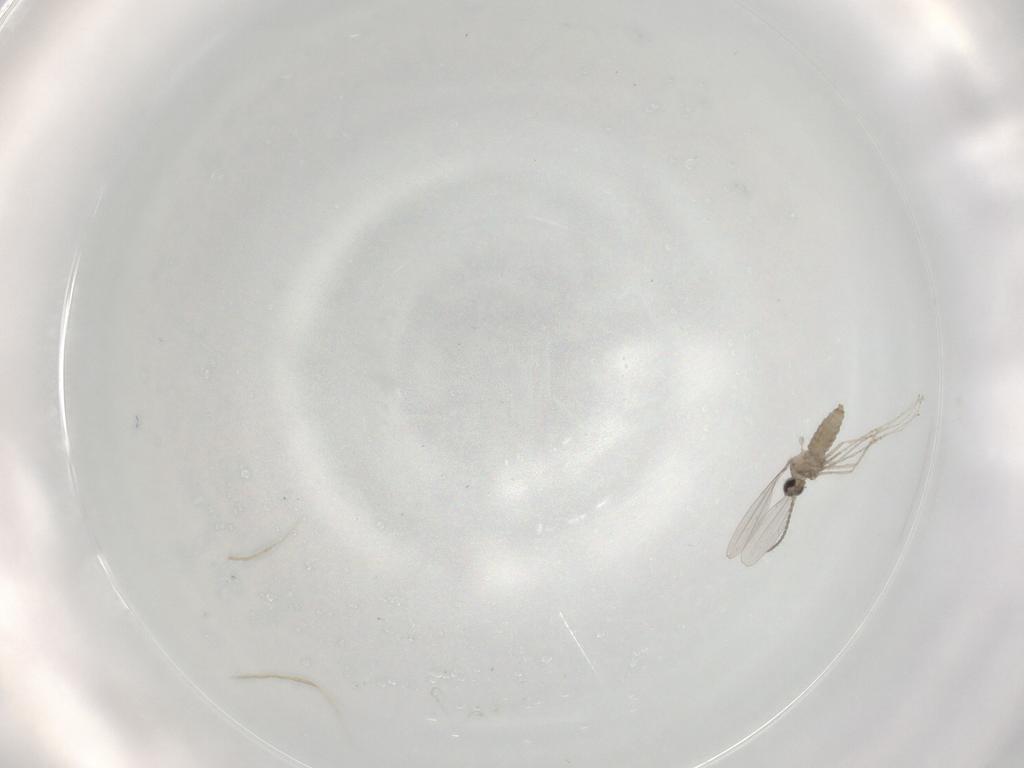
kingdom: Animalia
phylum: Arthropoda
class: Insecta
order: Diptera
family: Cecidomyiidae
